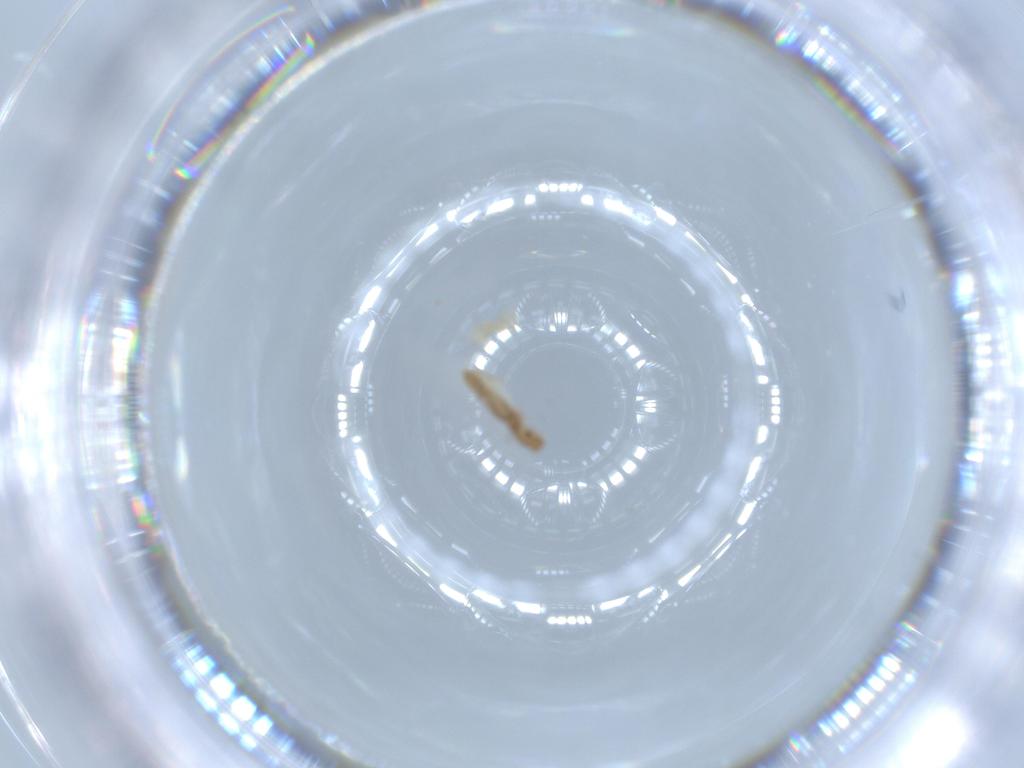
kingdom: Animalia
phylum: Arthropoda
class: Insecta
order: Psocodea
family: Liposcelididae
